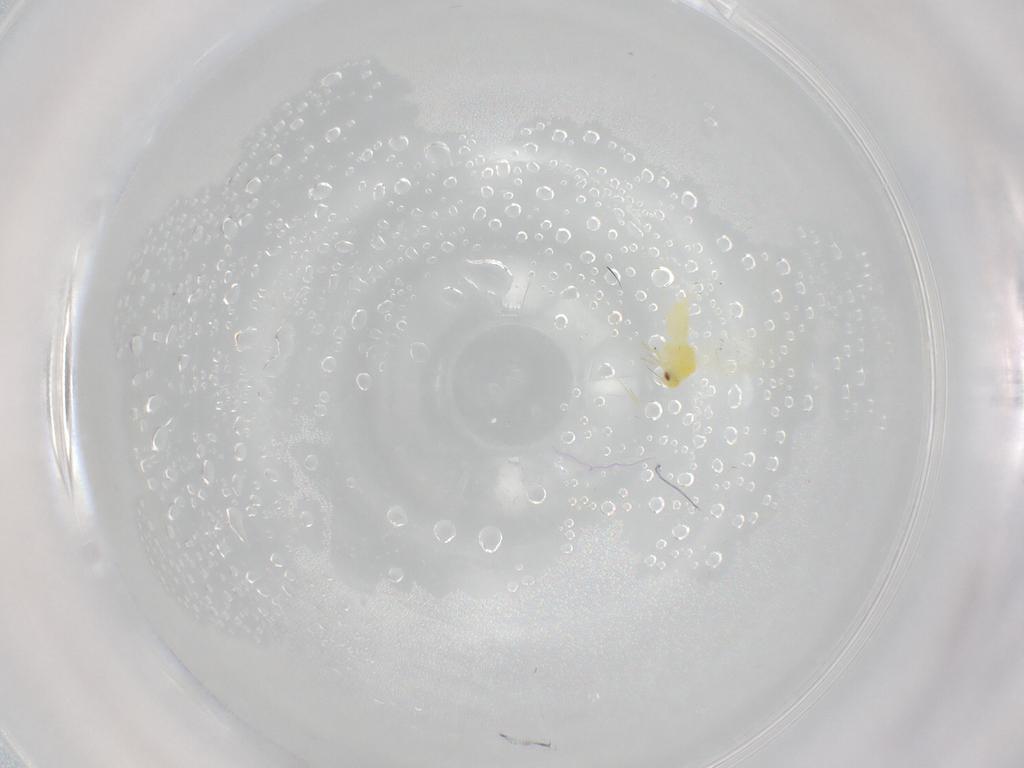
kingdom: Animalia
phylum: Arthropoda
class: Insecta
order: Hemiptera
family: Aleyrodidae
